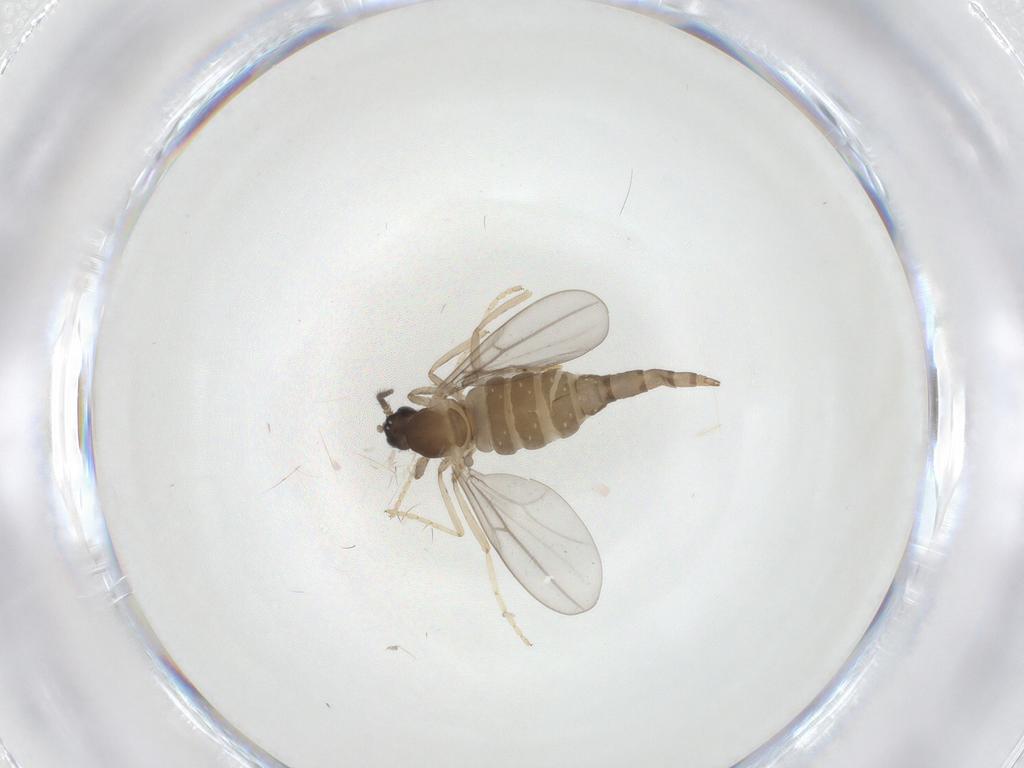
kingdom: Animalia
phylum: Arthropoda
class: Insecta
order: Diptera
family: Cecidomyiidae
